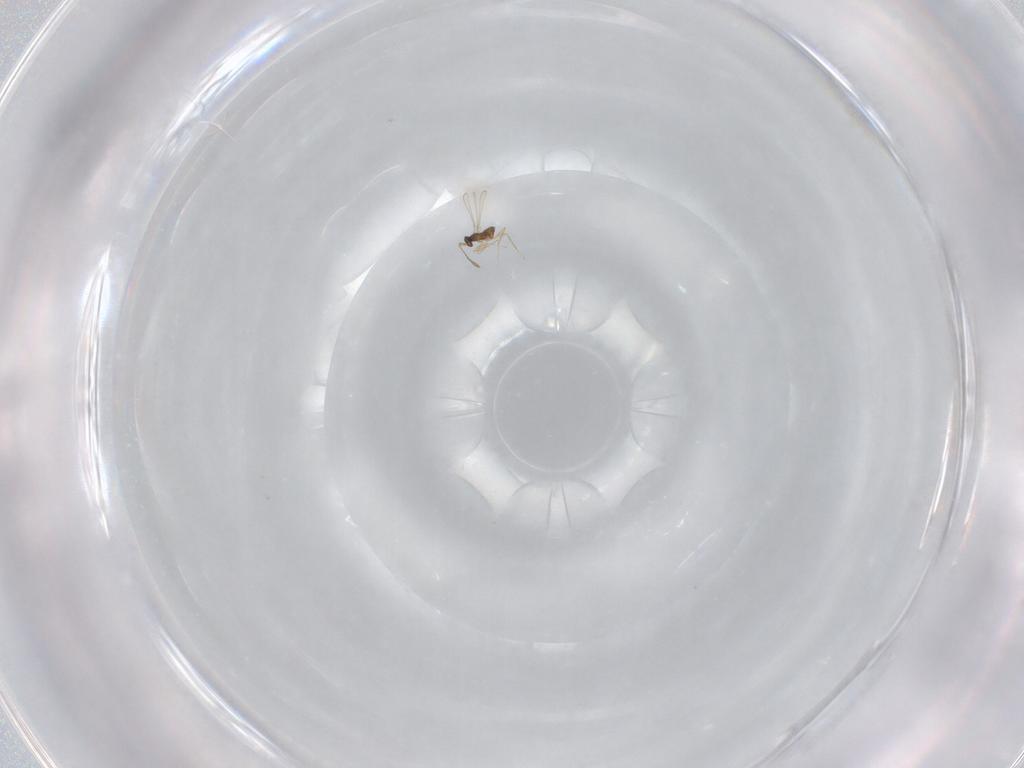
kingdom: Animalia
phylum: Arthropoda
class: Insecta
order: Hymenoptera
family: Mymaridae
